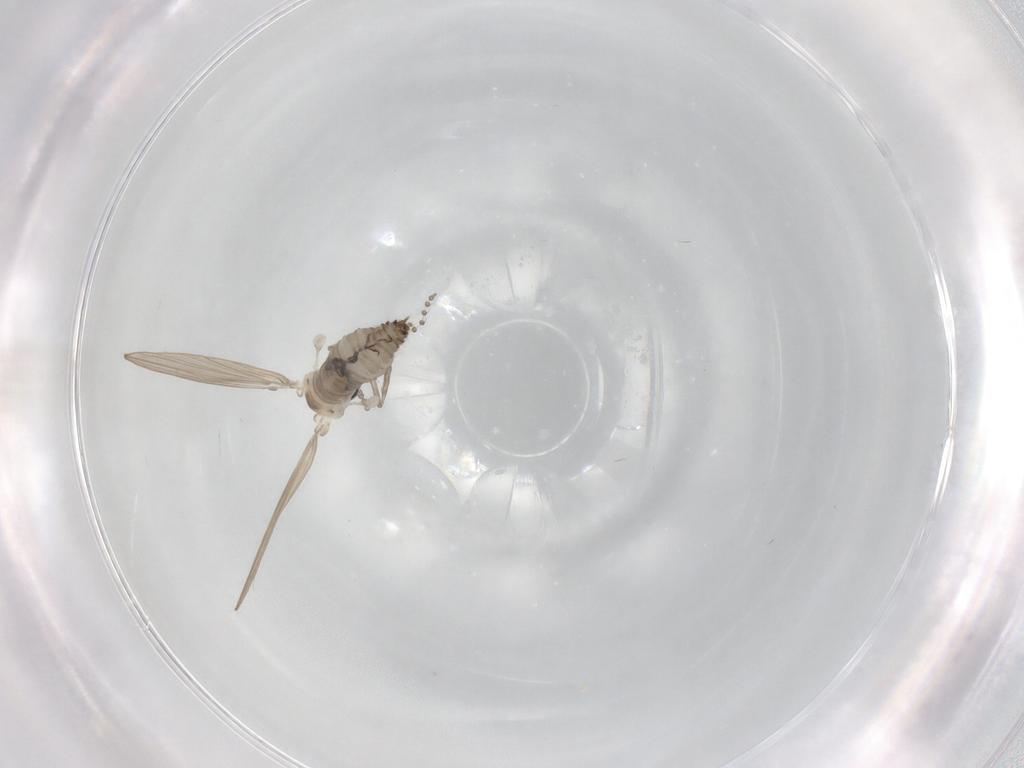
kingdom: Animalia
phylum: Arthropoda
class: Insecta
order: Diptera
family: Psychodidae
